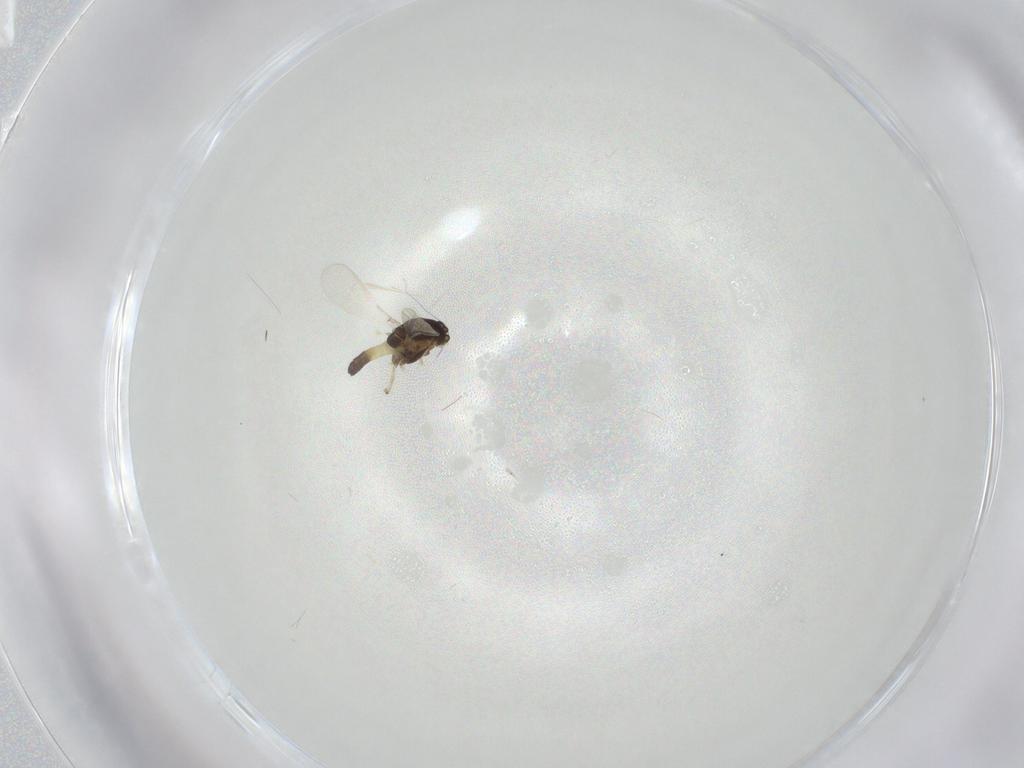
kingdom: Animalia
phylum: Arthropoda
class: Insecta
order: Diptera
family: Chironomidae
